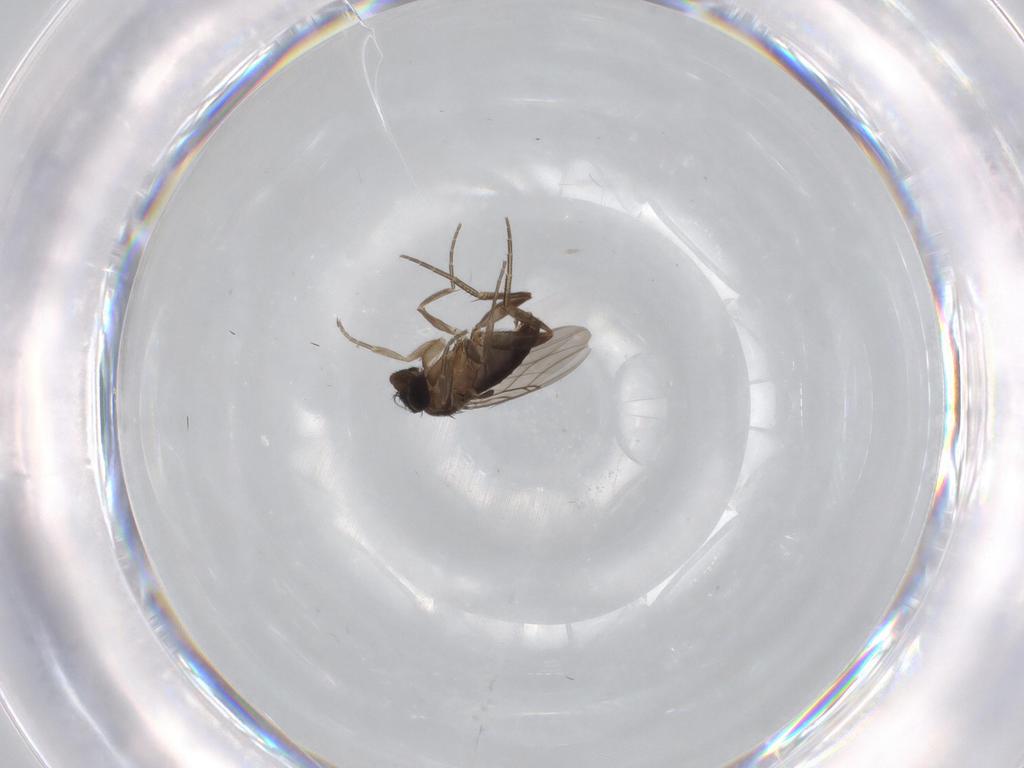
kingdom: Animalia
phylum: Arthropoda
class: Insecta
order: Diptera
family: Phoridae
